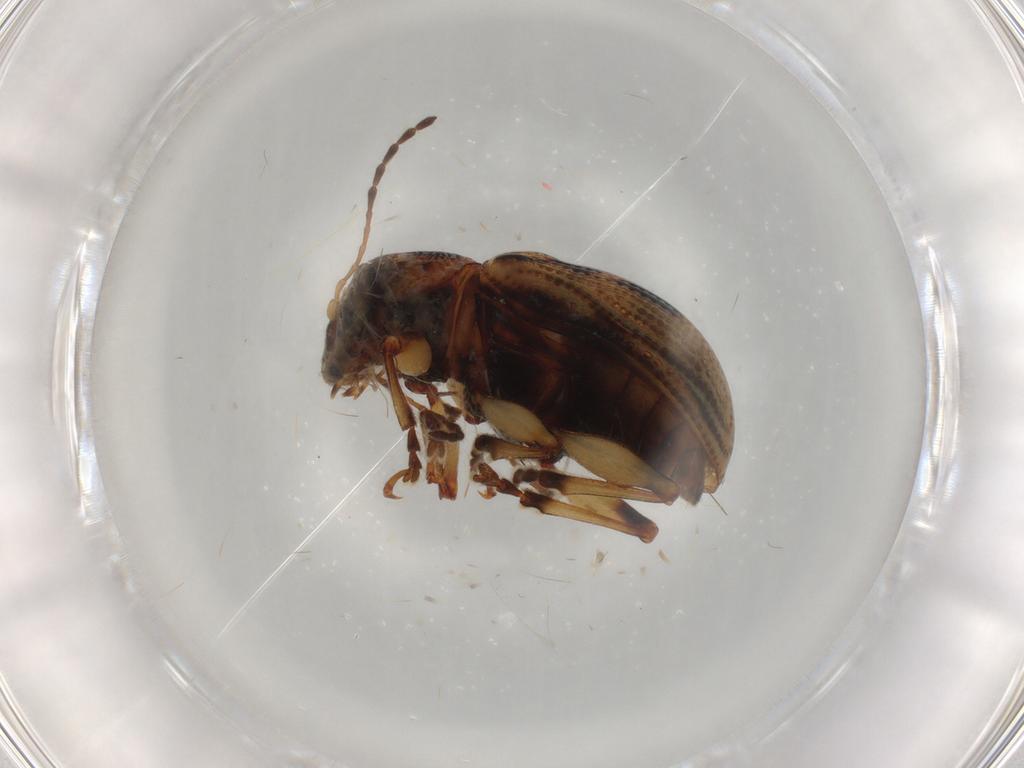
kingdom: Animalia
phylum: Arthropoda
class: Insecta
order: Coleoptera
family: Chrysomelidae
